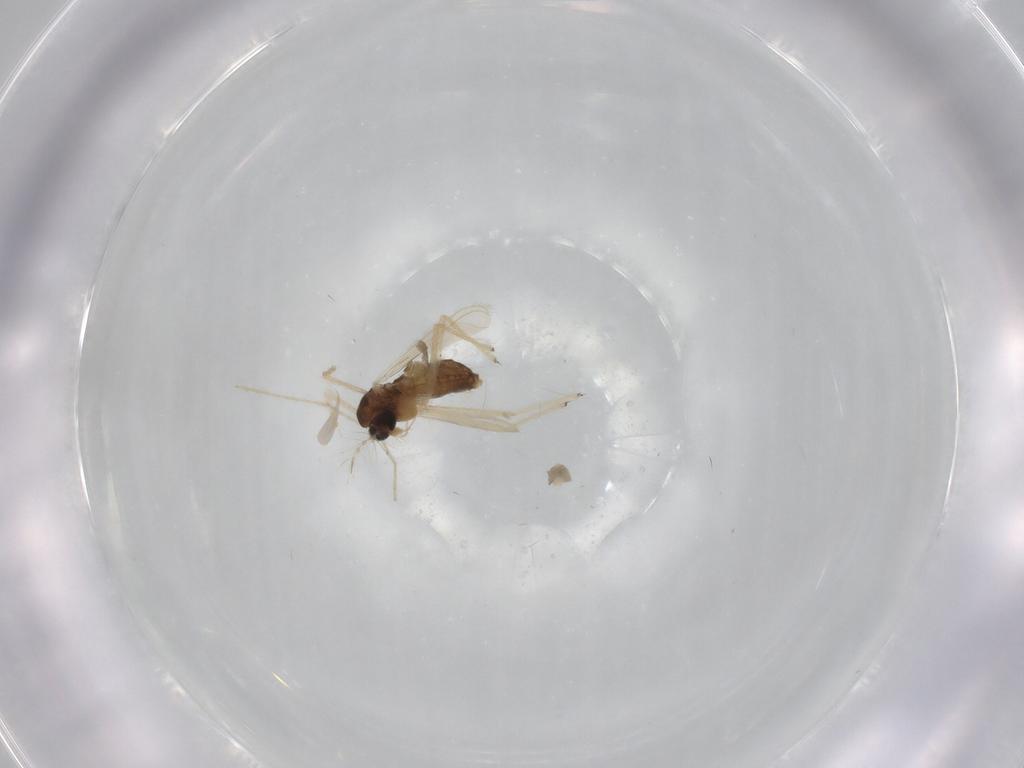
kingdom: Animalia
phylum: Arthropoda
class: Insecta
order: Diptera
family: Chironomidae
